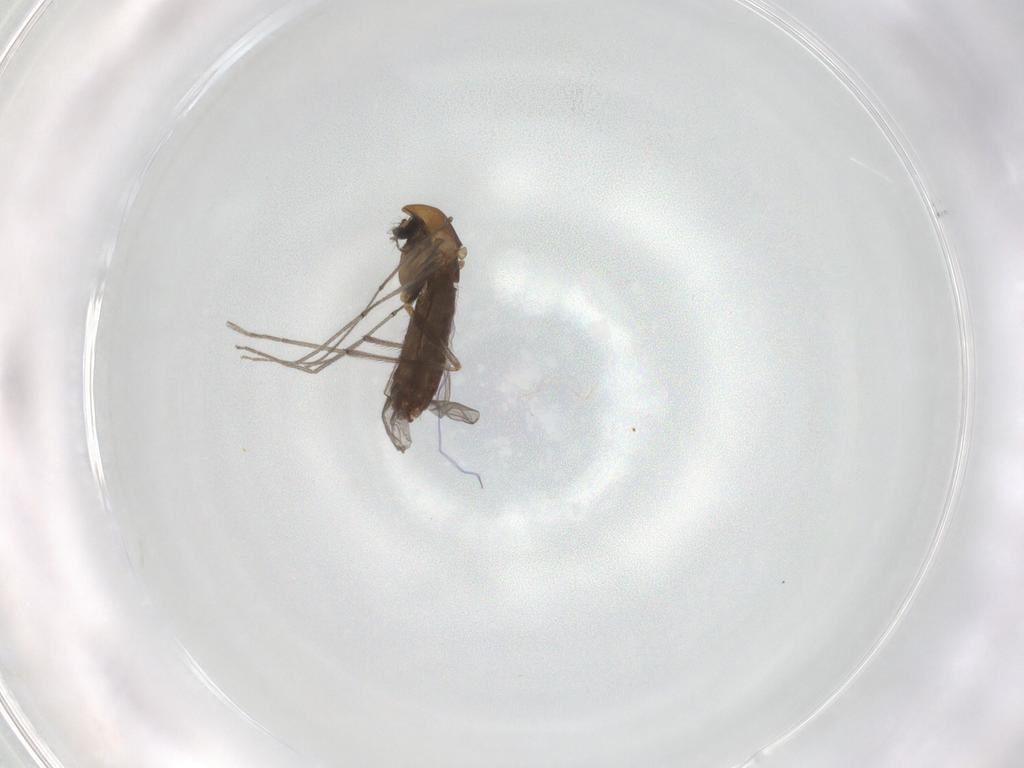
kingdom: Animalia
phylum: Arthropoda
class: Insecta
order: Diptera
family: Chironomidae
